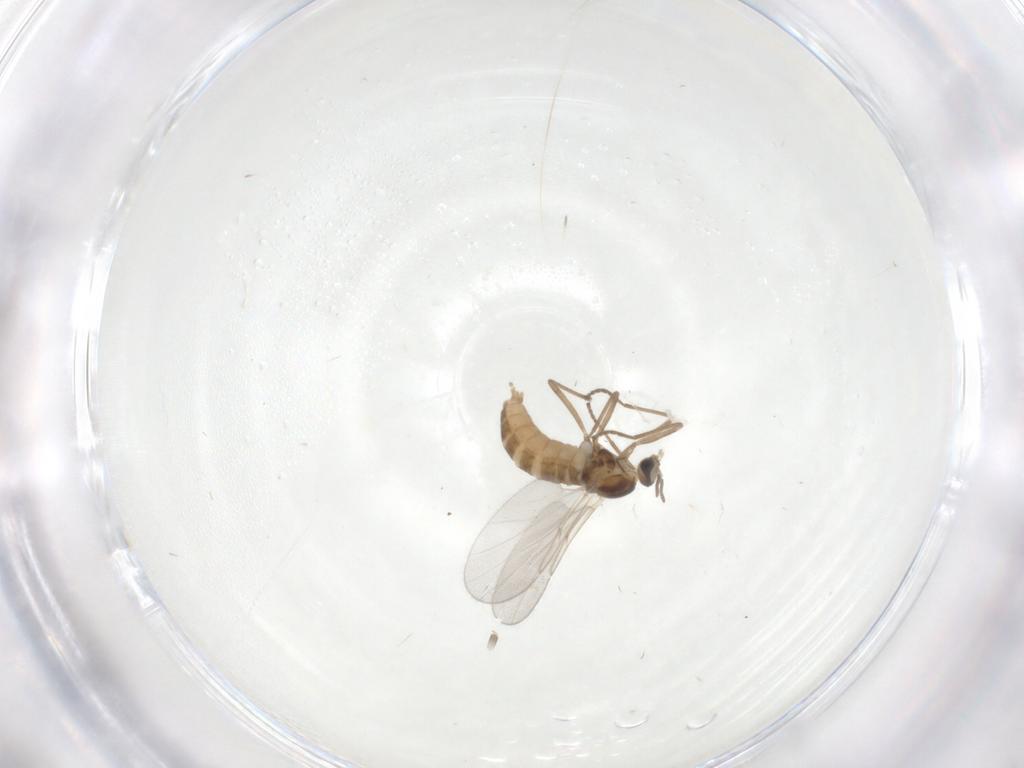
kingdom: Animalia
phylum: Arthropoda
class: Insecta
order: Diptera
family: Cecidomyiidae
